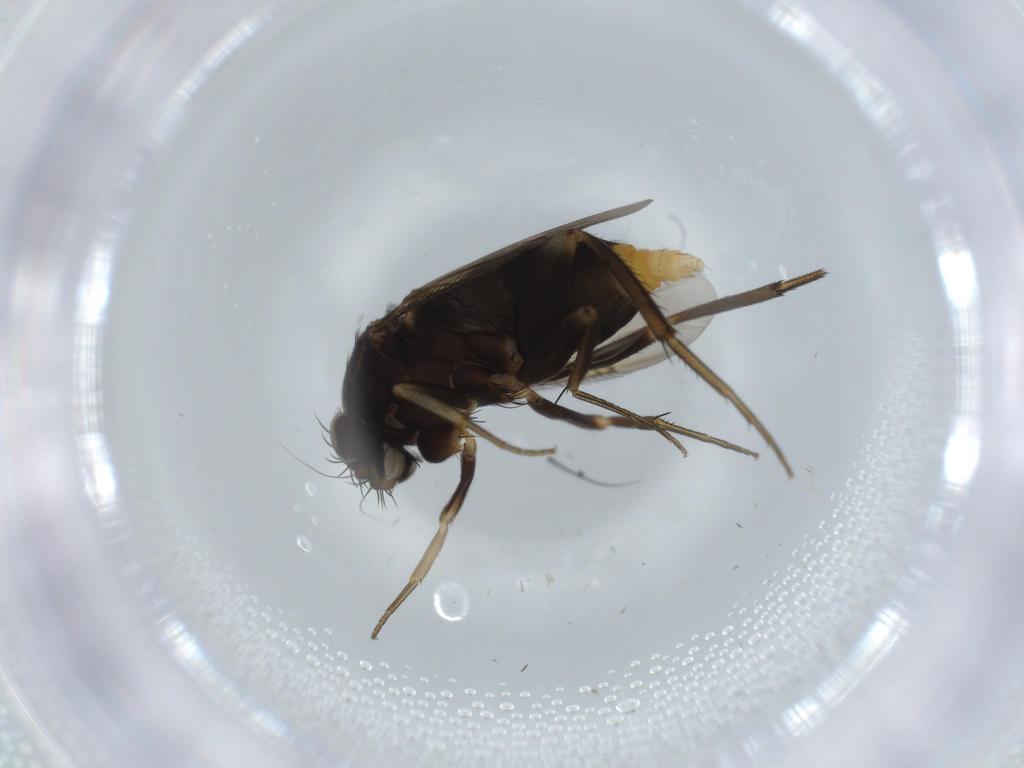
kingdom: Animalia
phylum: Arthropoda
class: Insecta
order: Diptera
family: Phoridae
